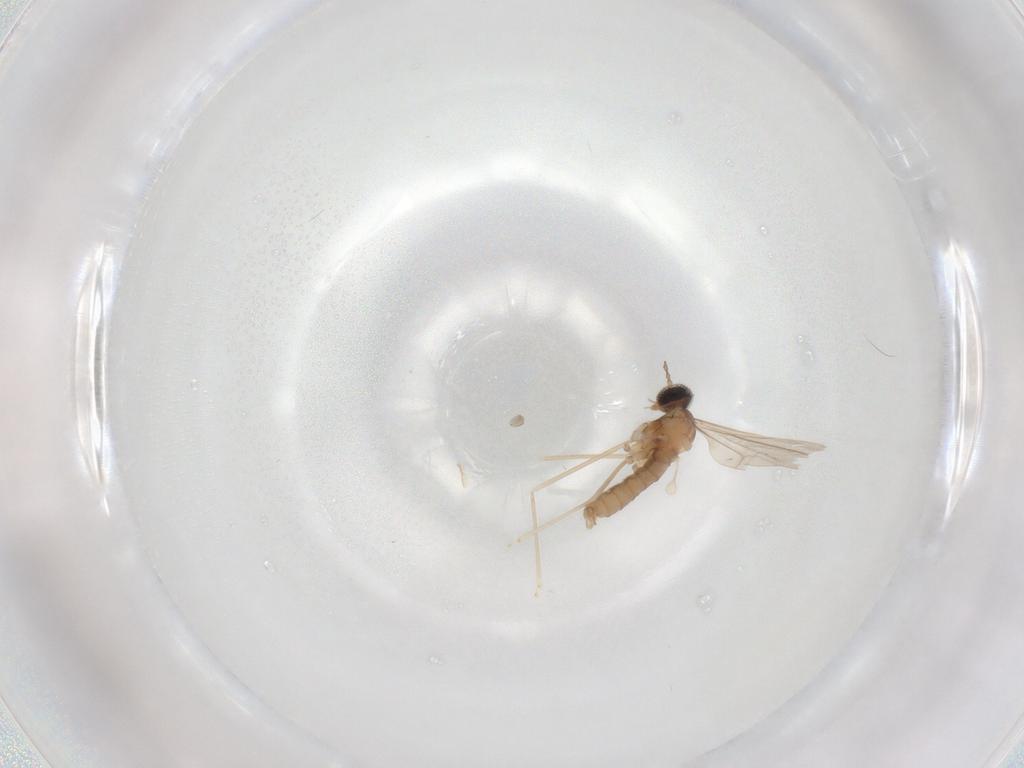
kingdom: Animalia
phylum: Arthropoda
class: Insecta
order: Diptera
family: Cecidomyiidae
